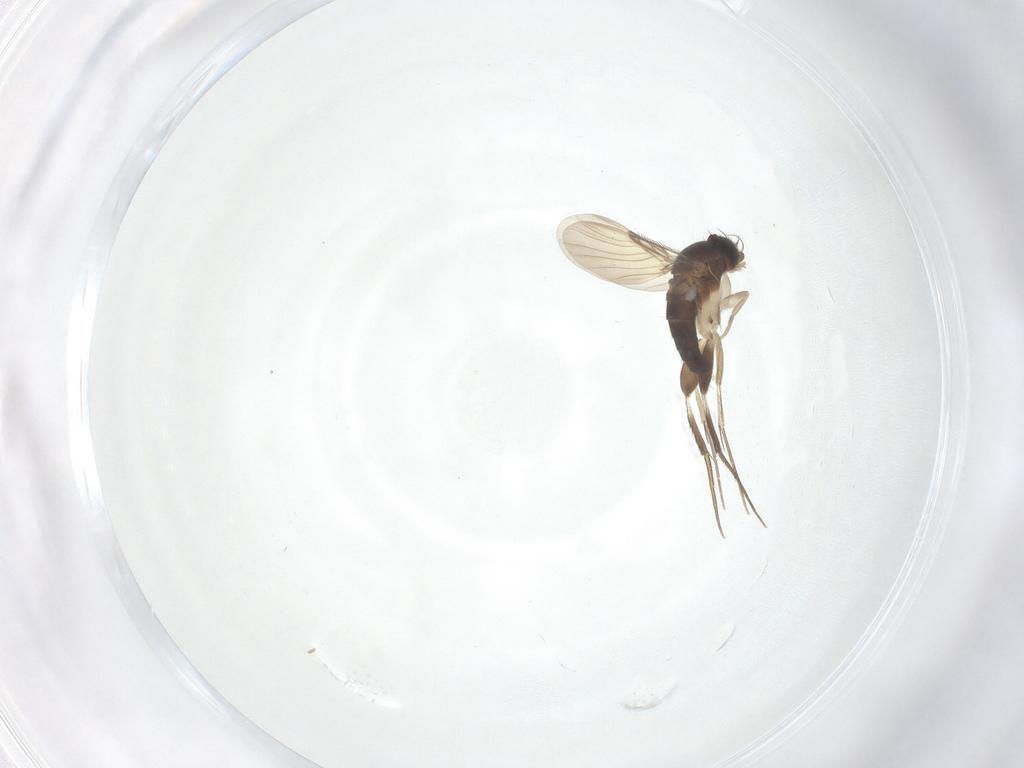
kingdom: Animalia
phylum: Arthropoda
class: Insecta
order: Diptera
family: Phoridae
